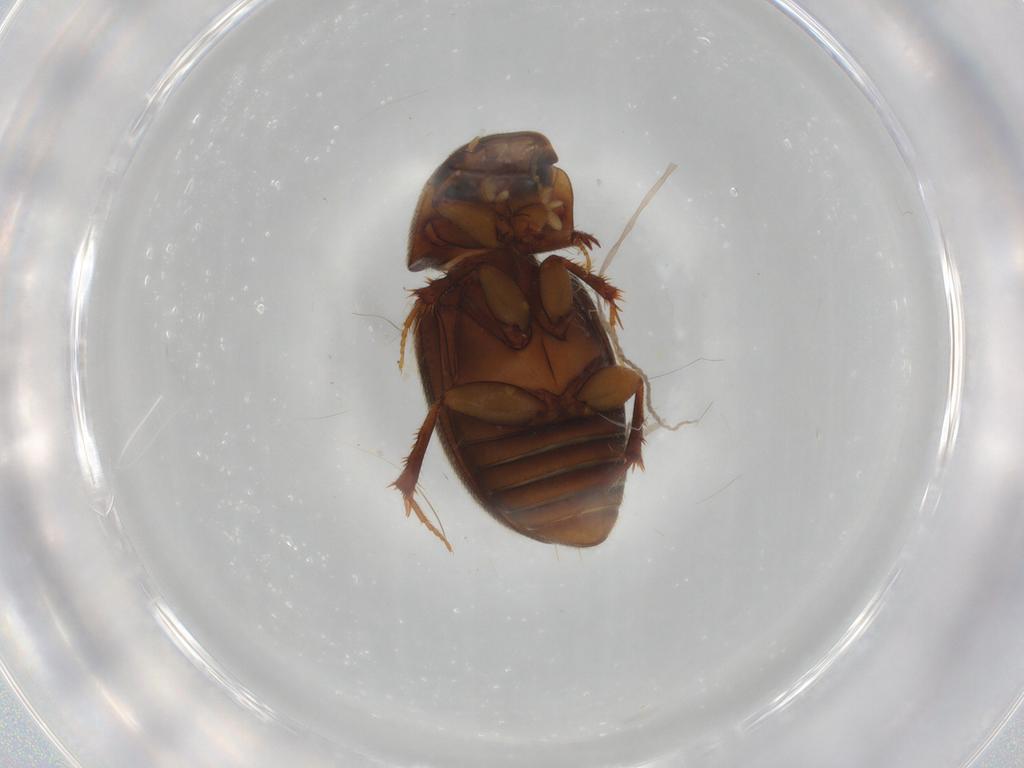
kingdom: Animalia
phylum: Arthropoda
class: Insecta
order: Coleoptera
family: Scarabaeidae
